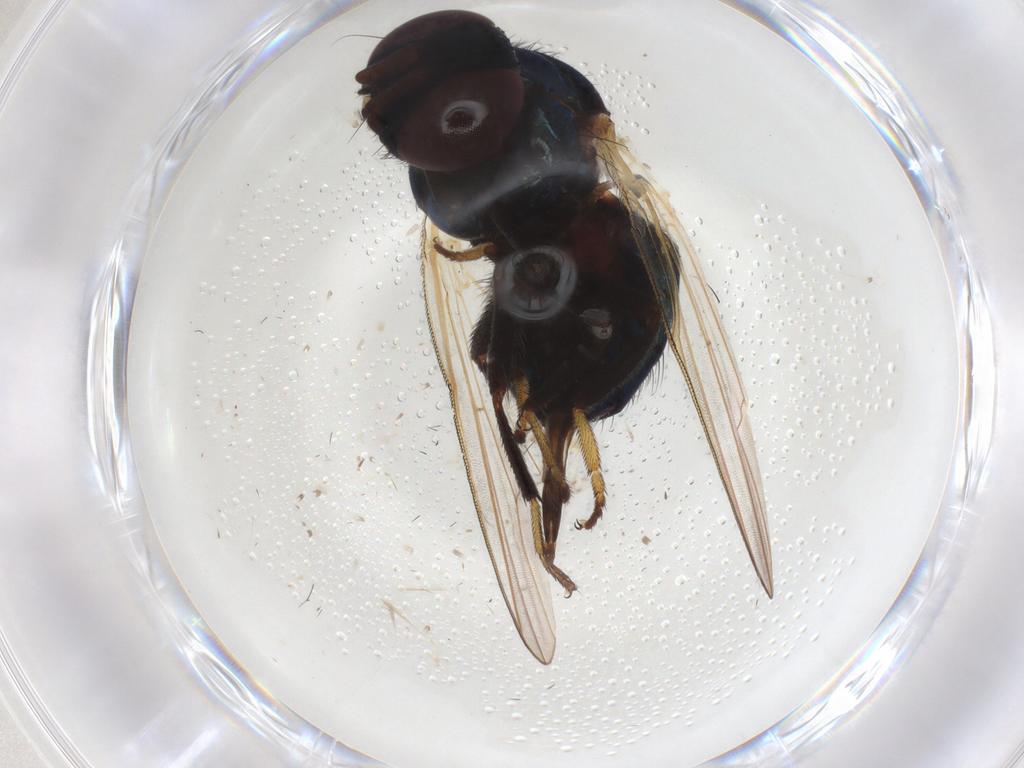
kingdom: Animalia
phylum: Arthropoda
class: Insecta
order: Diptera
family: Lonchaeidae
